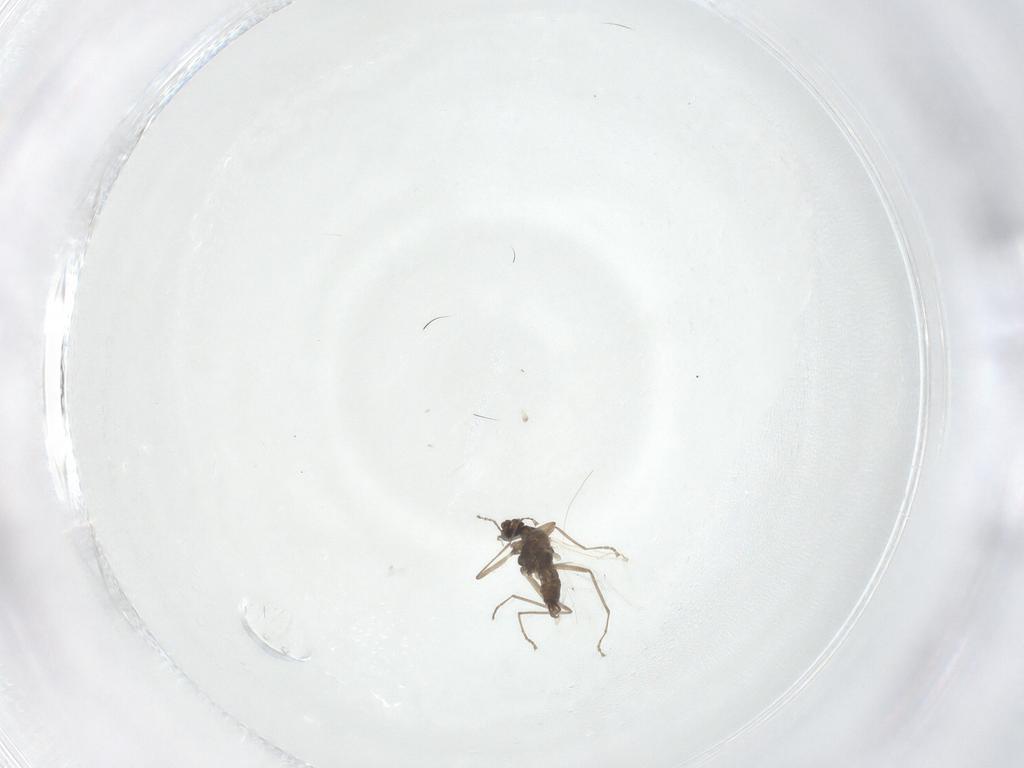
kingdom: Animalia
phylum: Arthropoda
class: Insecta
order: Diptera
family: Cecidomyiidae
